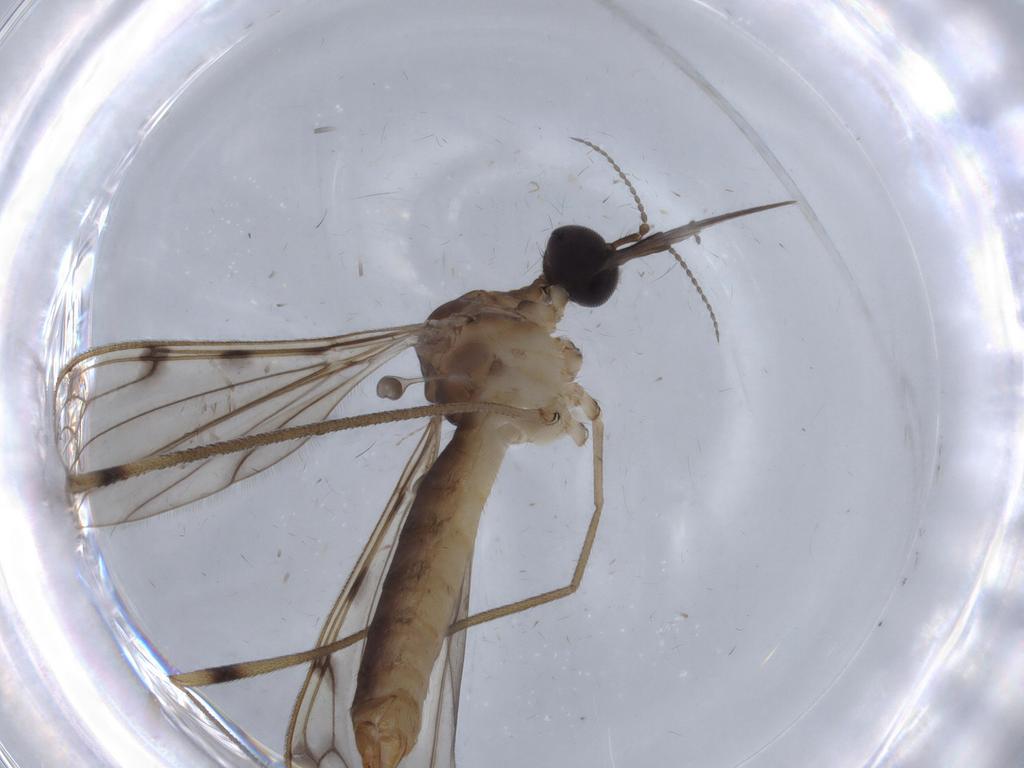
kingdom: Animalia
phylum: Arthropoda
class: Insecta
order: Diptera
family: Cecidomyiidae
